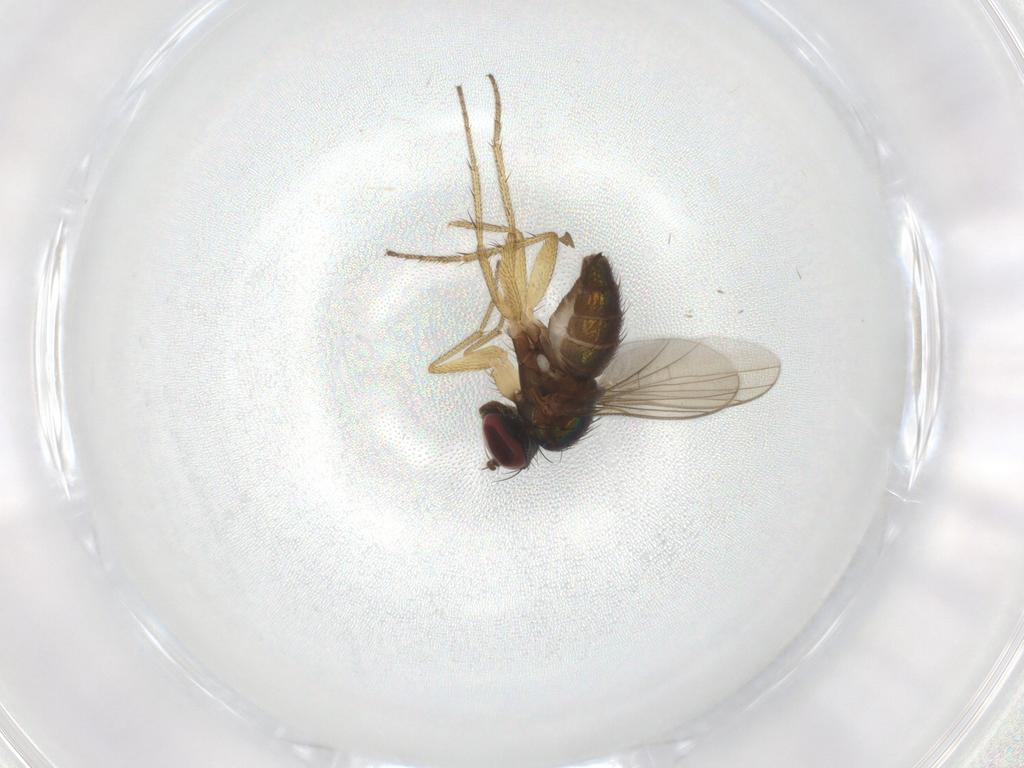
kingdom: Animalia
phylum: Arthropoda
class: Insecta
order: Diptera
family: Dolichopodidae
